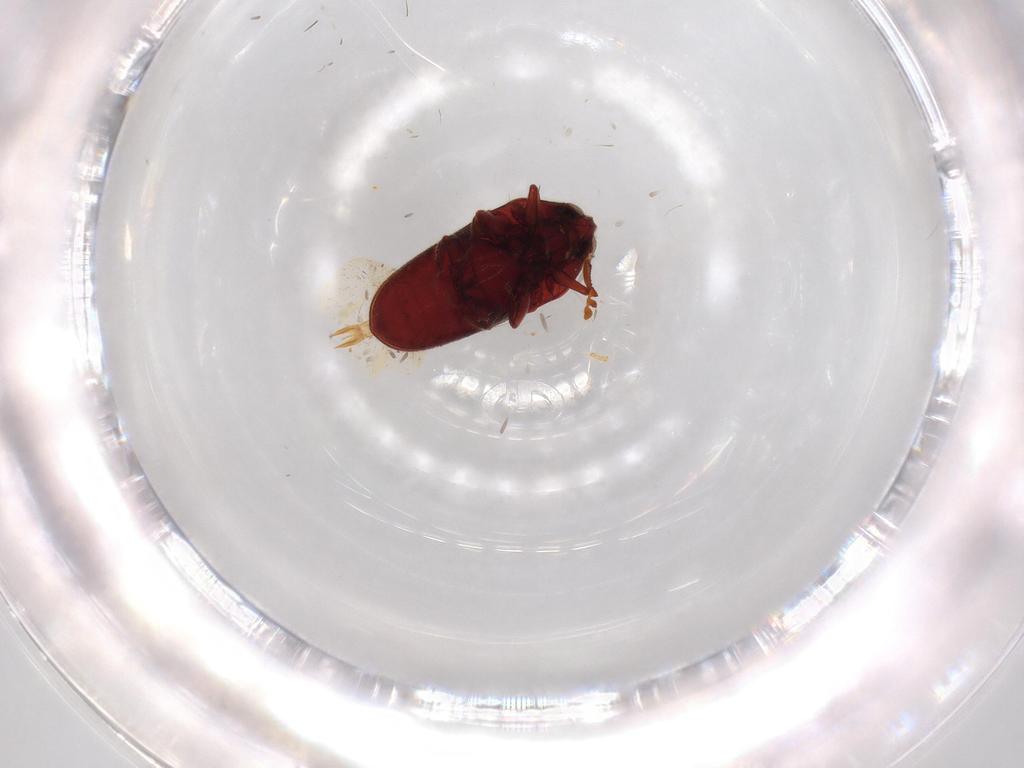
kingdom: Animalia
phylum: Arthropoda
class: Insecta
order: Coleoptera
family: Throscidae
